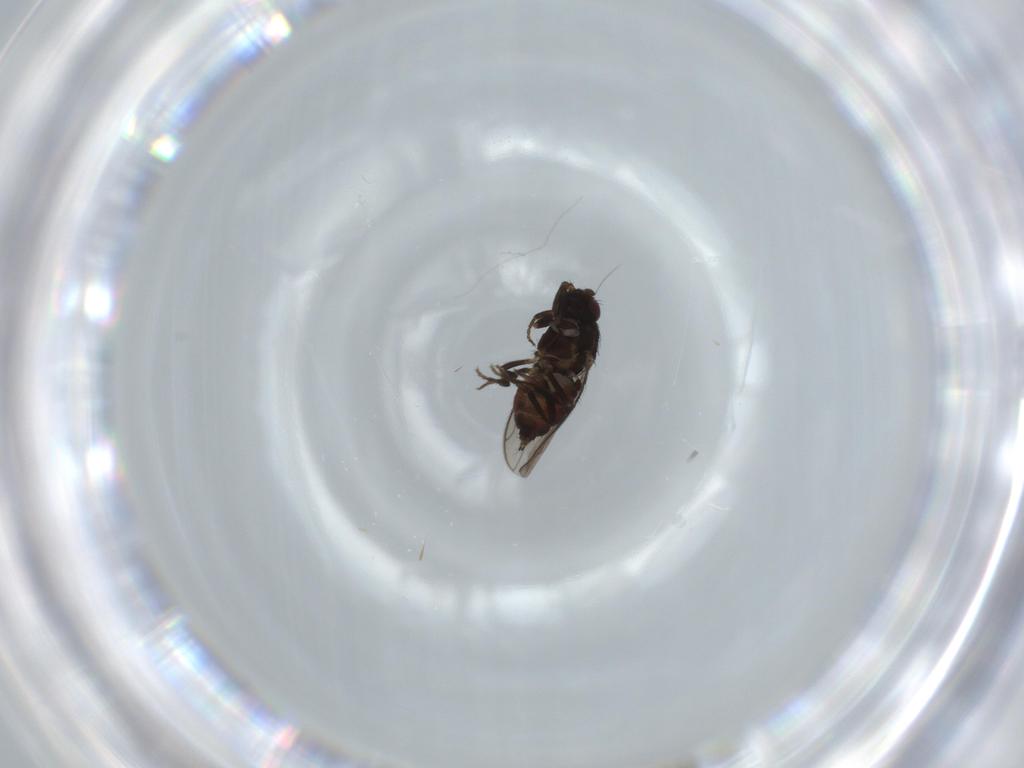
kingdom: Animalia
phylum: Arthropoda
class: Insecta
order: Diptera
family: Sphaeroceridae
